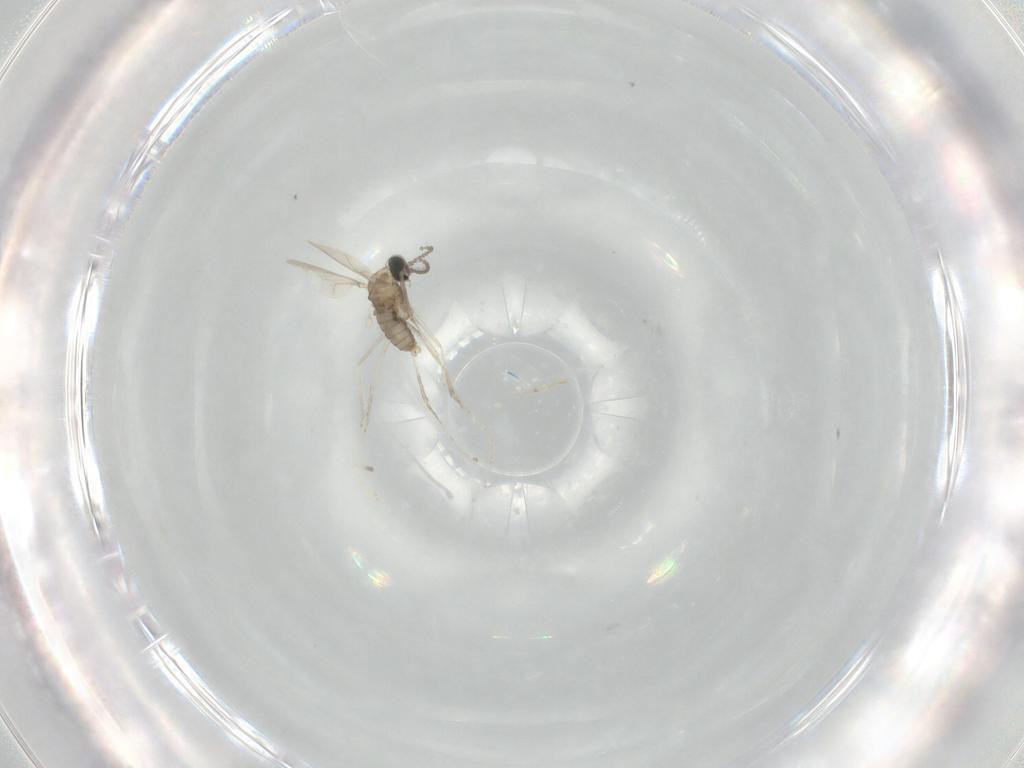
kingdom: Animalia
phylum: Arthropoda
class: Insecta
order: Diptera
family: Cecidomyiidae
